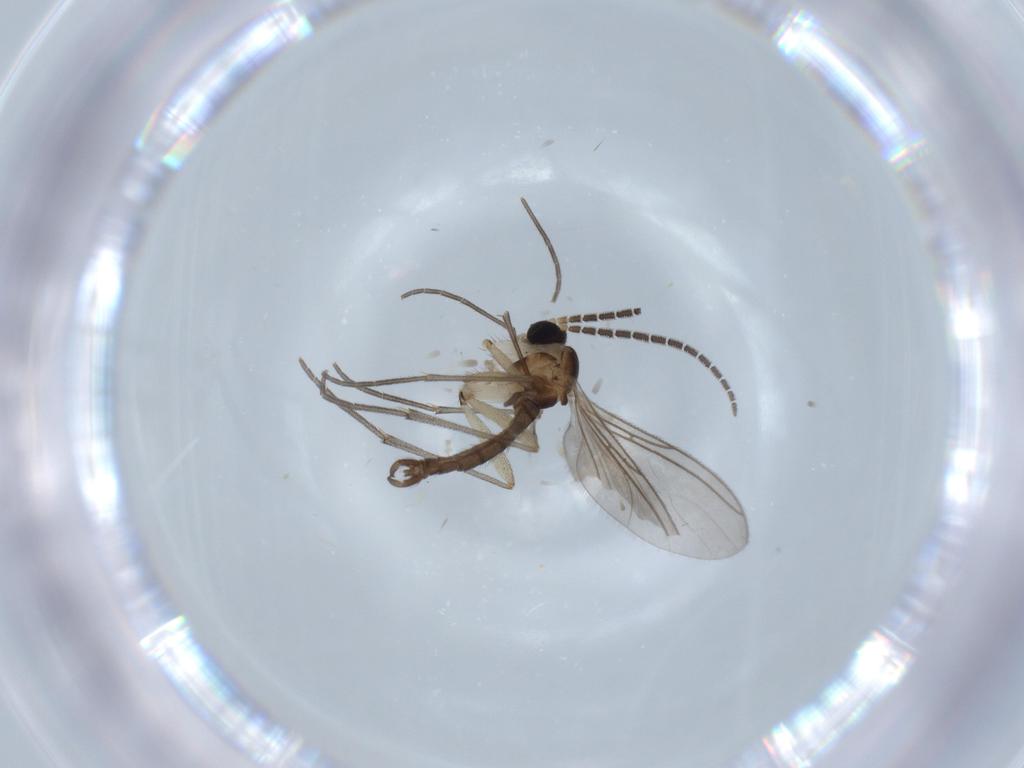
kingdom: Animalia
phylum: Arthropoda
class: Insecta
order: Diptera
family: Sciaridae
